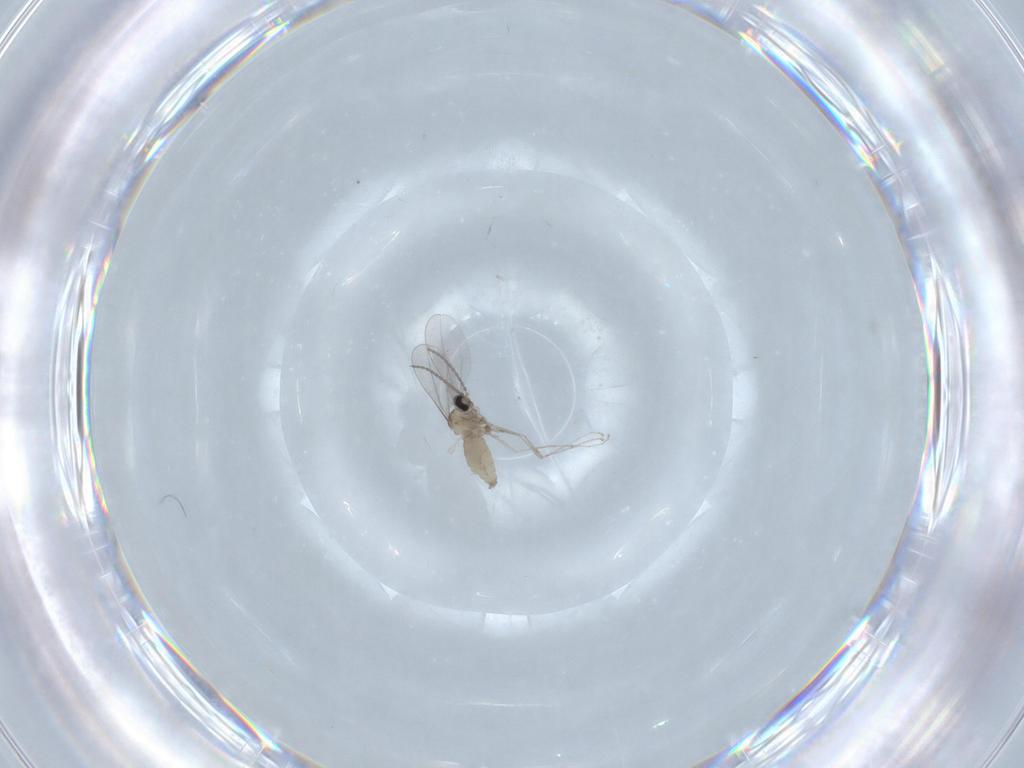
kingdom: Animalia
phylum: Arthropoda
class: Insecta
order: Diptera
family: Cecidomyiidae
